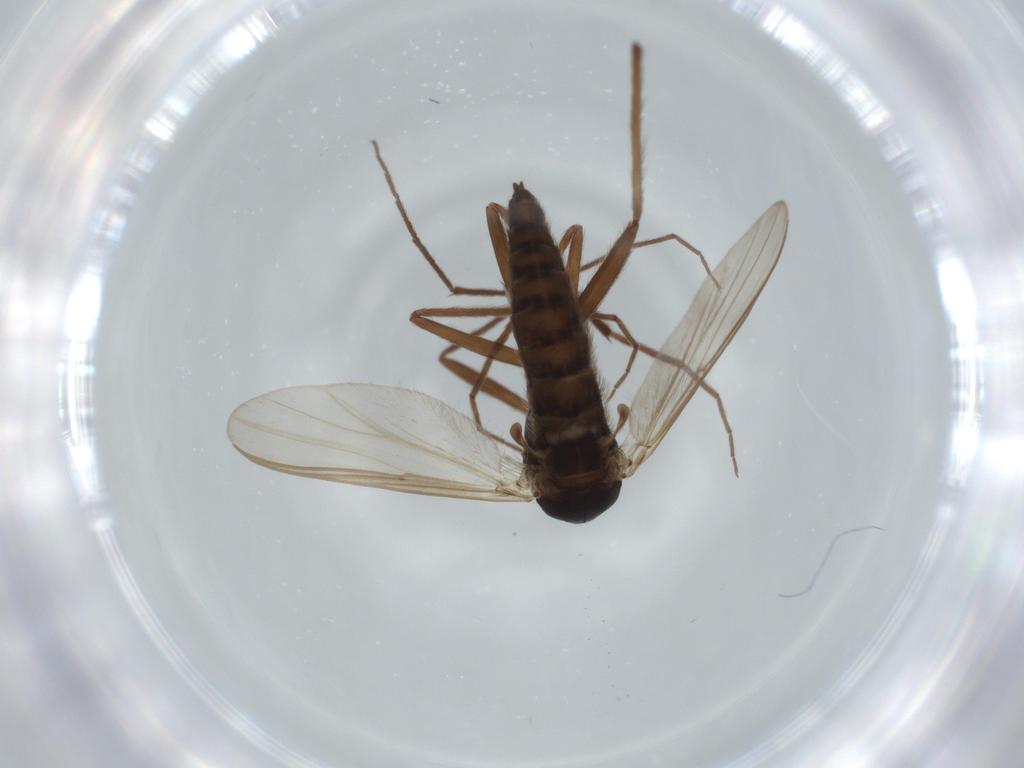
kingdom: Animalia
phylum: Arthropoda
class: Insecta
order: Diptera
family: Chironomidae
